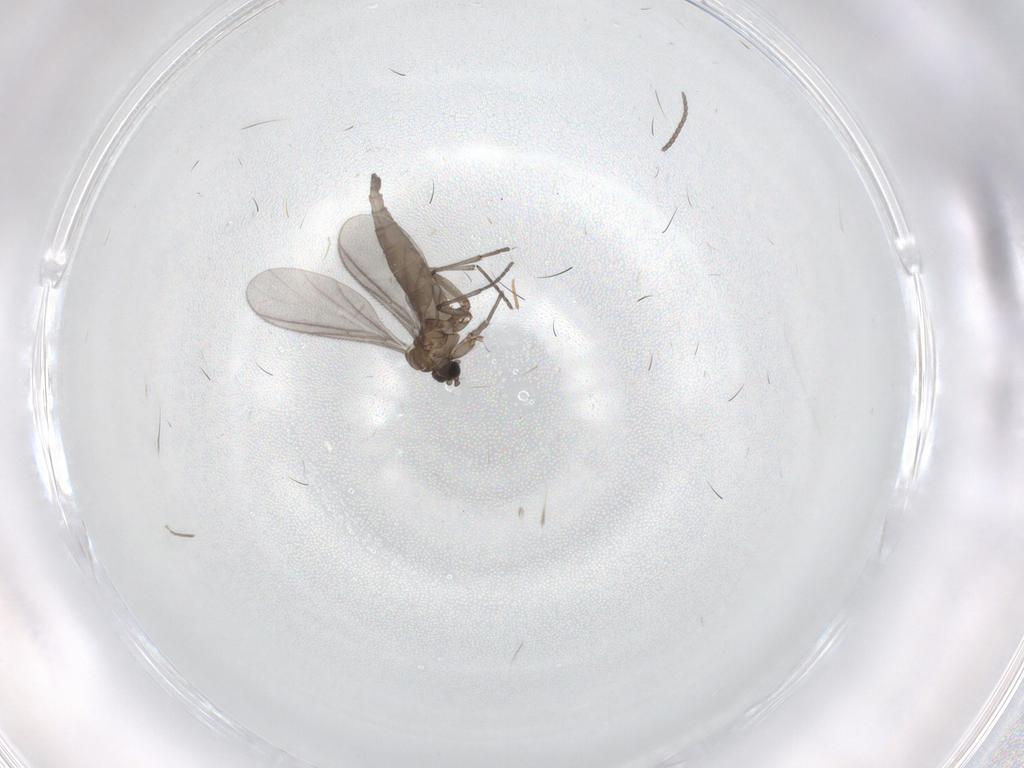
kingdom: Animalia
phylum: Arthropoda
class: Insecta
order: Diptera
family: Sciaridae
